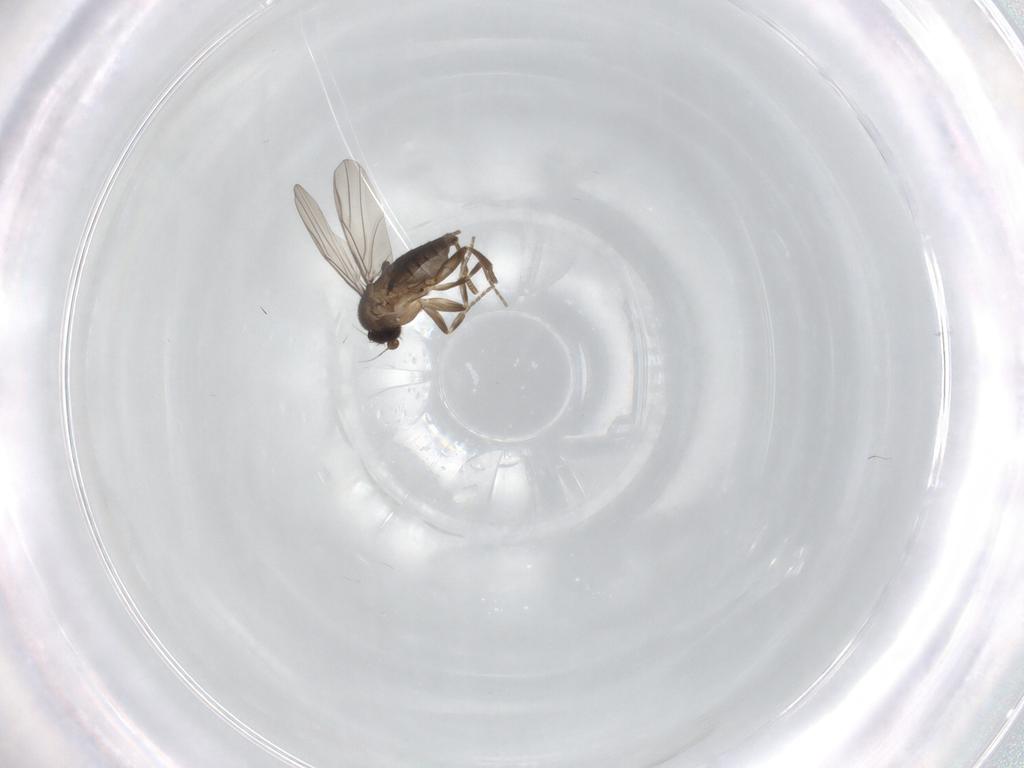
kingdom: Animalia
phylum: Arthropoda
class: Insecta
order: Diptera
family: Phoridae
